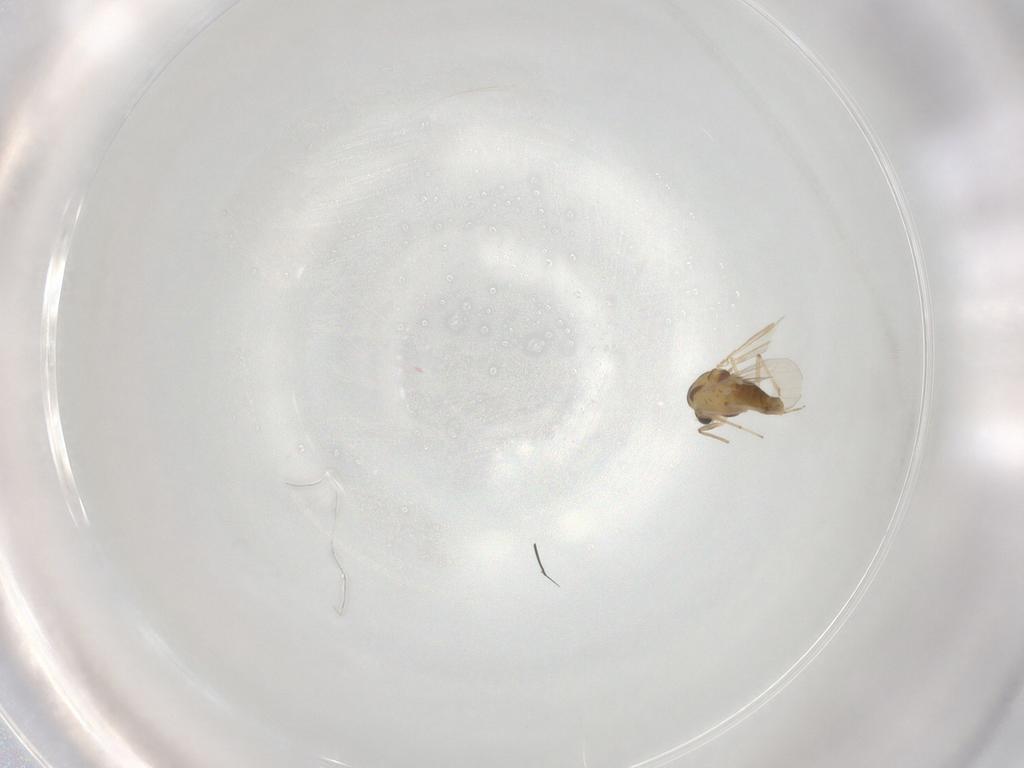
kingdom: Animalia
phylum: Arthropoda
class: Insecta
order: Diptera
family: Chironomidae
